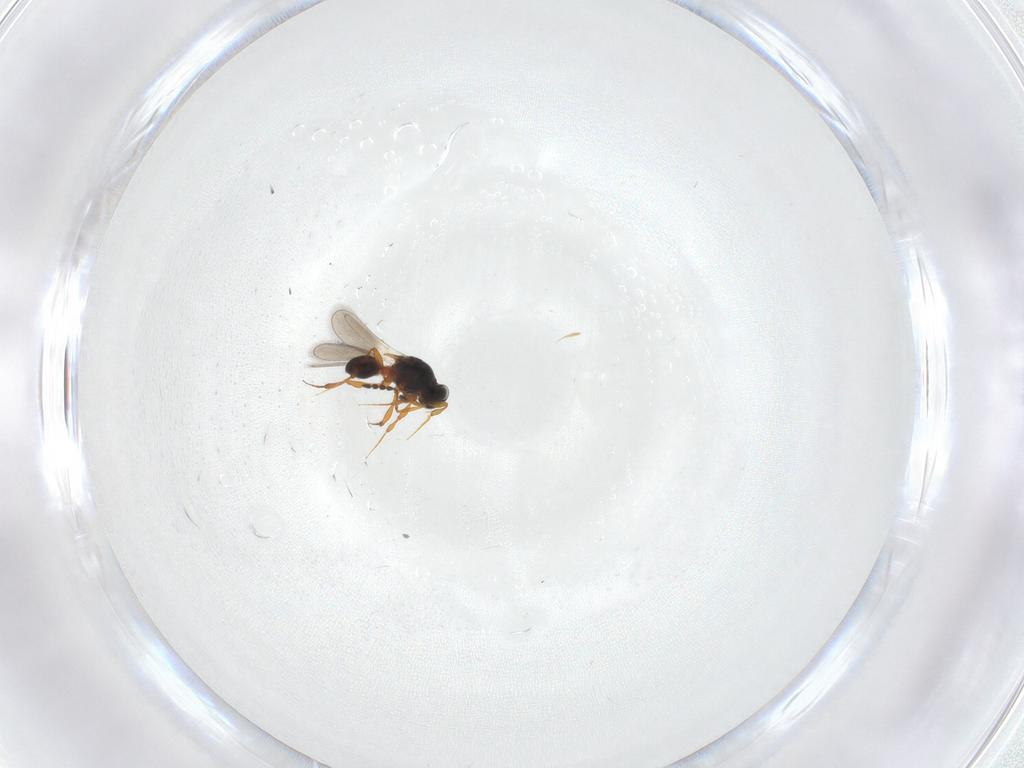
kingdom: Animalia
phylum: Arthropoda
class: Insecta
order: Hymenoptera
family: Platygastridae
